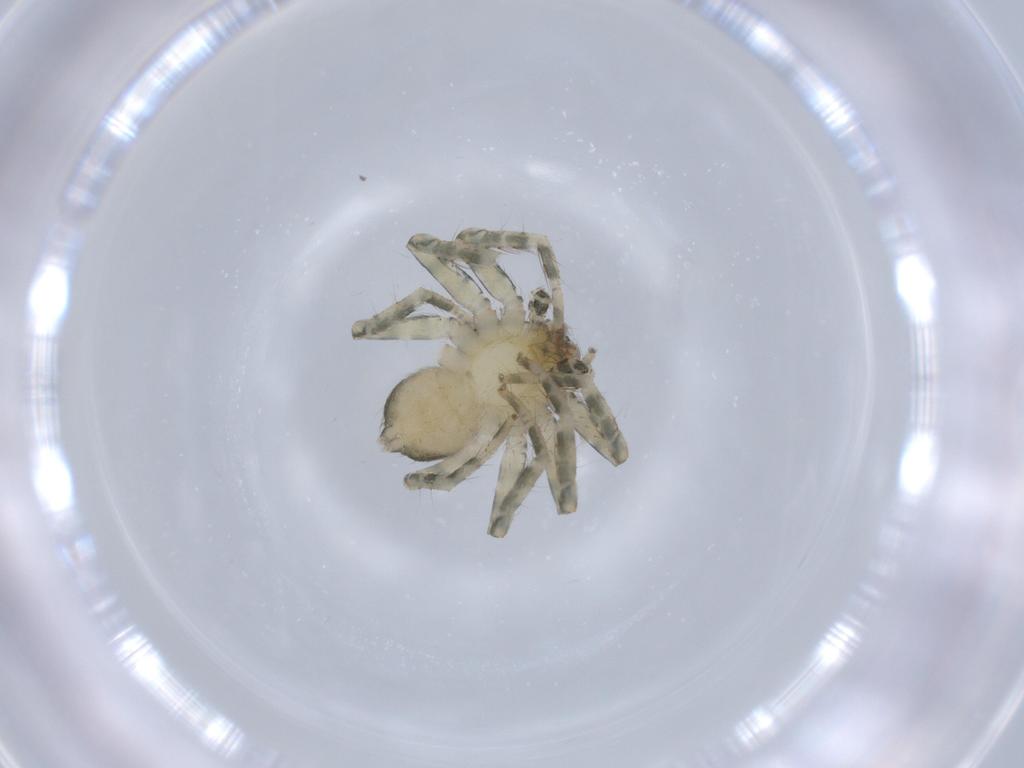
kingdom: Animalia
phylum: Arthropoda
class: Arachnida
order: Araneae
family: Selenopidae
